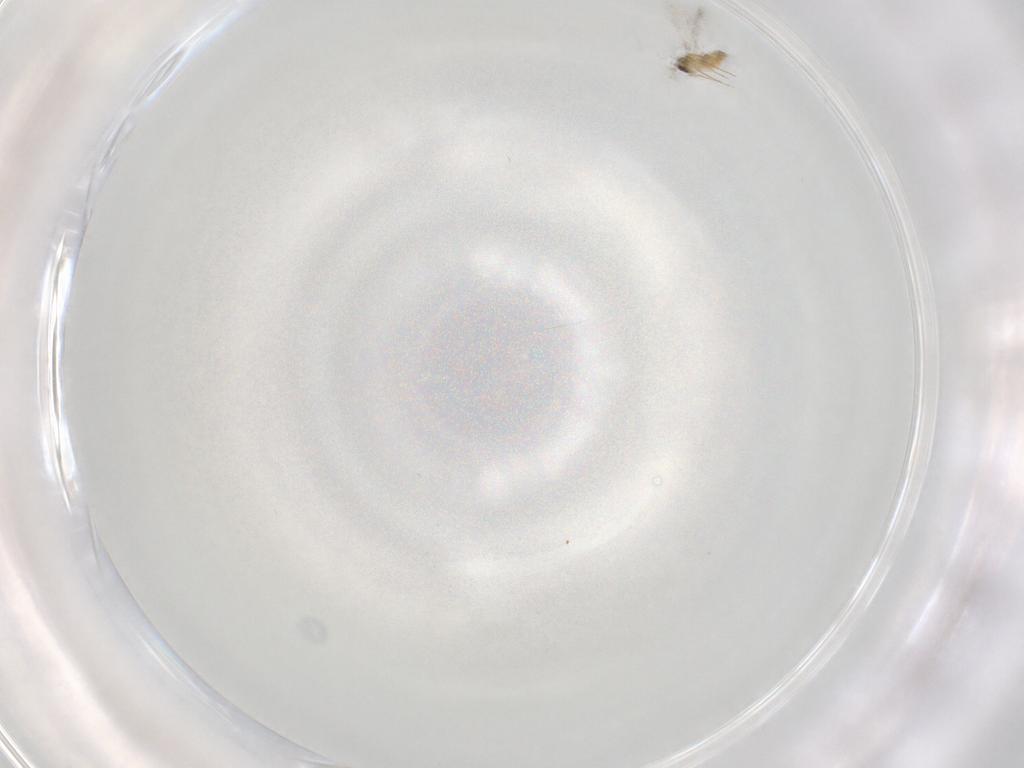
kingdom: Animalia
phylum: Arthropoda
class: Insecta
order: Hymenoptera
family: Mymaridae
